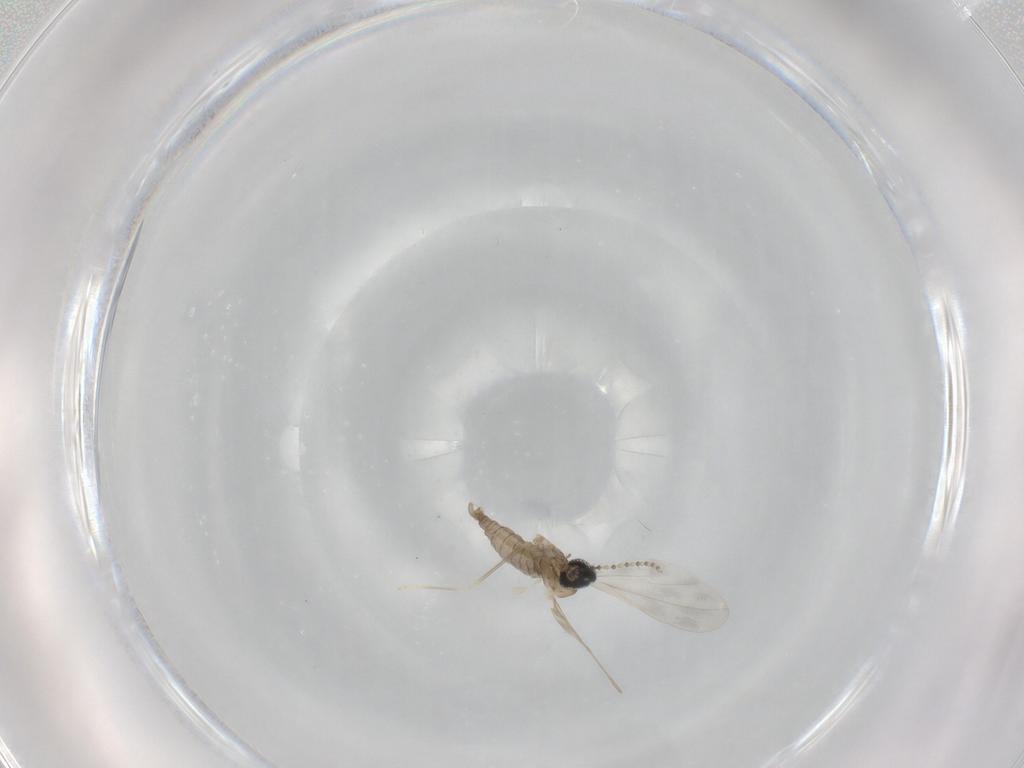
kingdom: Animalia
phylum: Arthropoda
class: Insecta
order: Diptera
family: Cecidomyiidae
